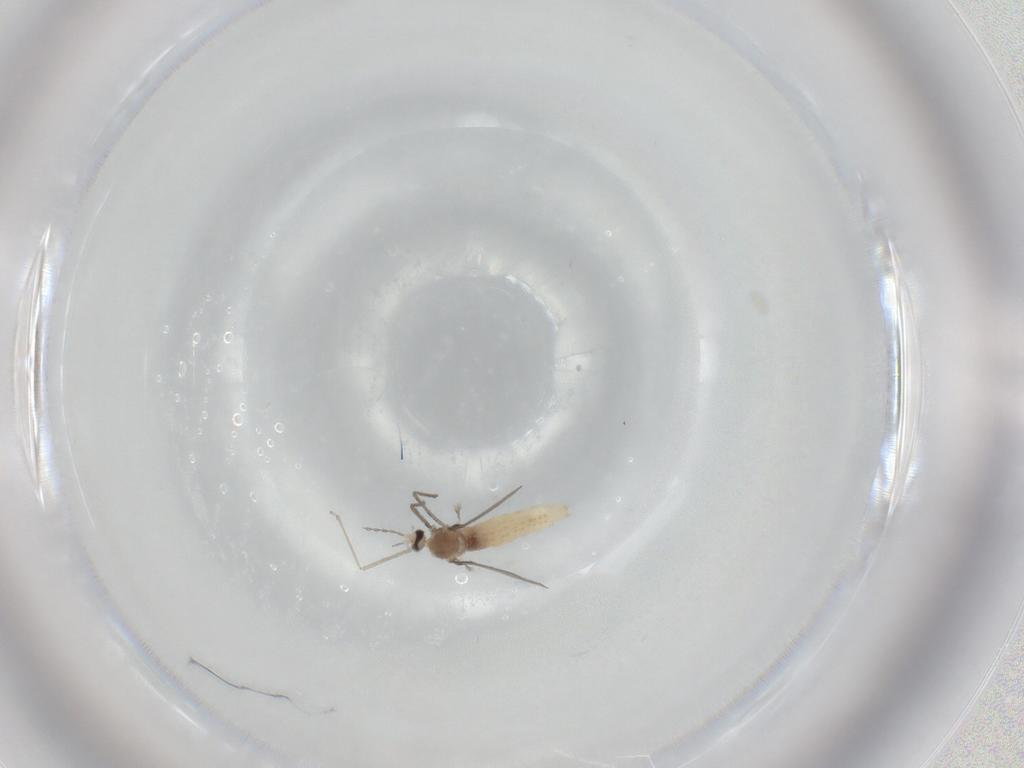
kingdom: Animalia
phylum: Arthropoda
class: Insecta
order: Diptera
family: Cecidomyiidae
